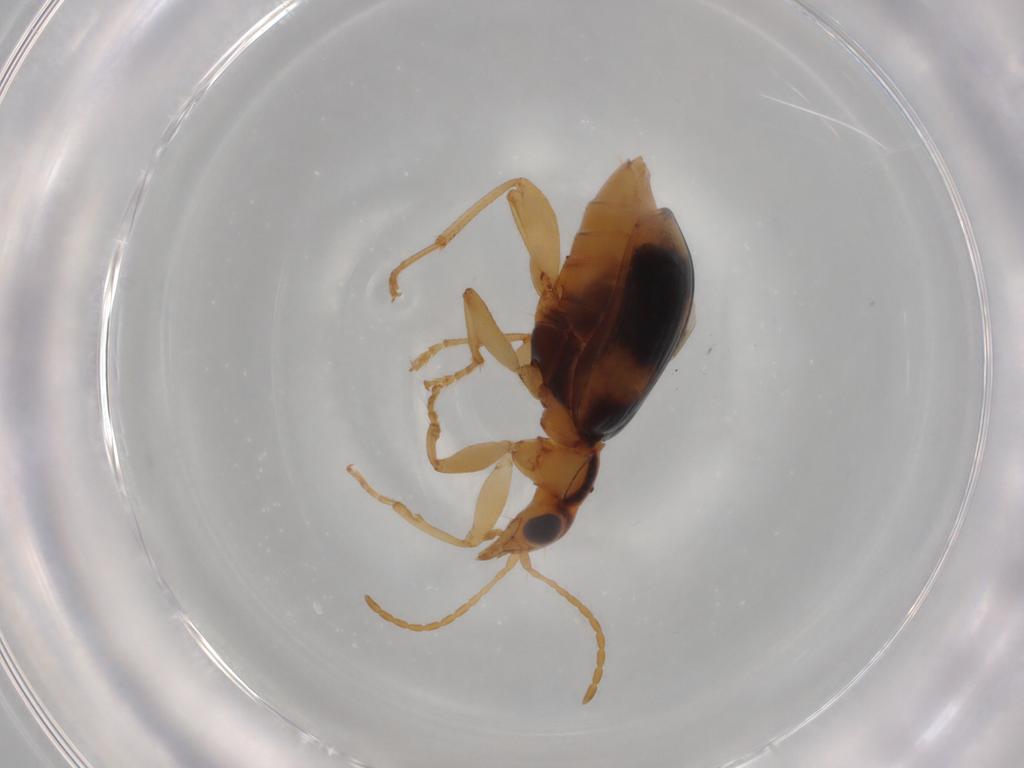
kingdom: Animalia
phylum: Arthropoda
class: Insecta
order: Coleoptera
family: Carabidae
